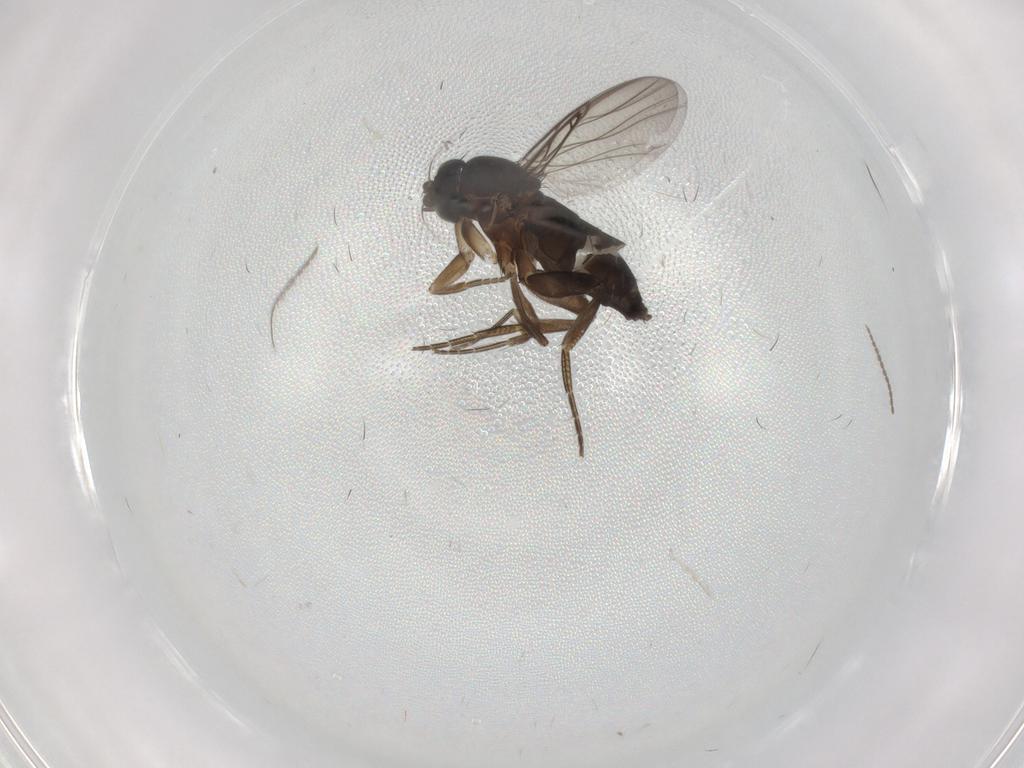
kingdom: Animalia
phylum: Arthropoda
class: Insecta
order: Diptera
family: Phoridae
